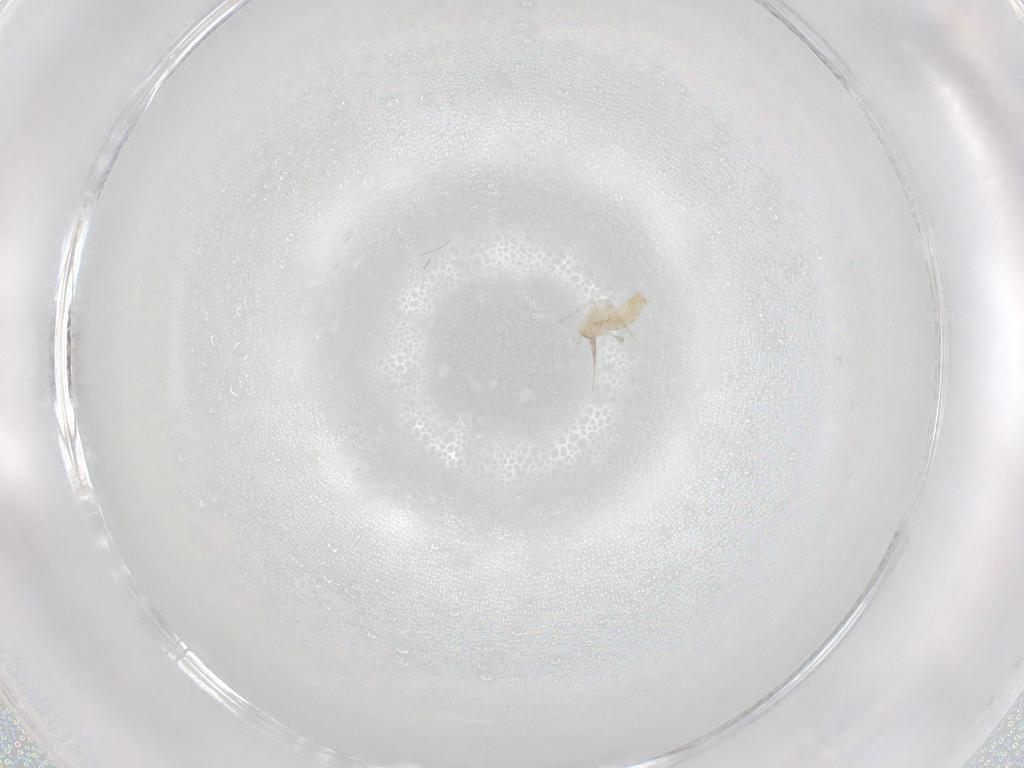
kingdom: Animalia
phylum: Arthropoda
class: Insecta
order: Diptera
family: Cecidomyiidae
